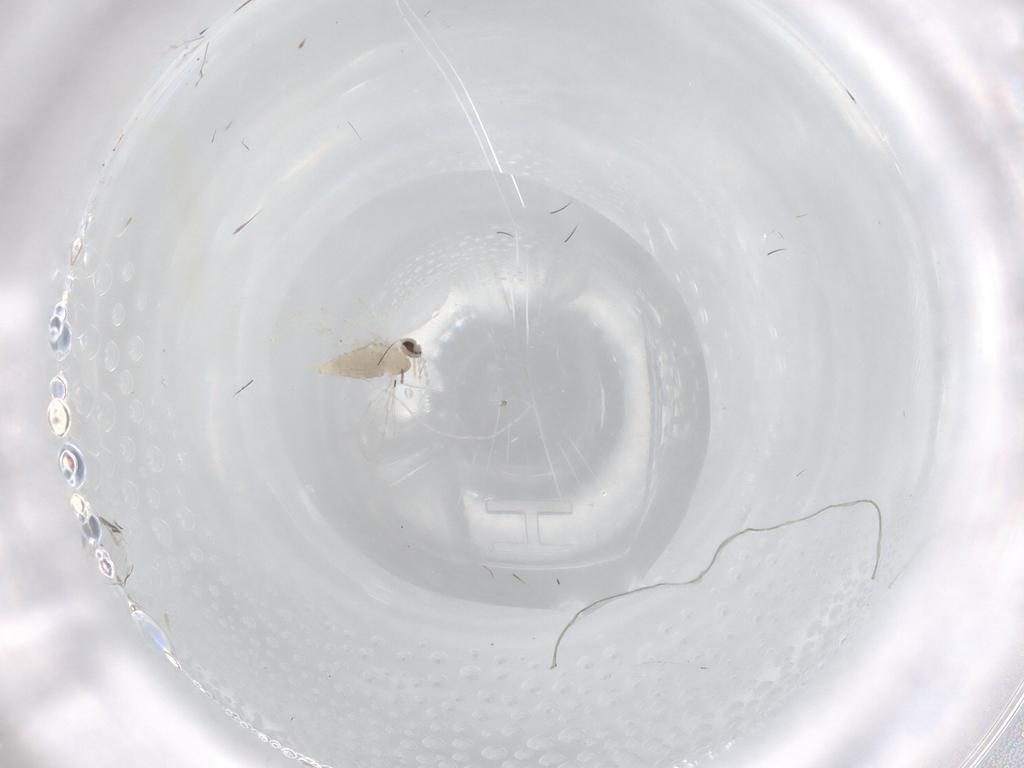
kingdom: Animalia
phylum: Arthropoda
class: Insecta
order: Diptera
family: Cecidomyiidae
